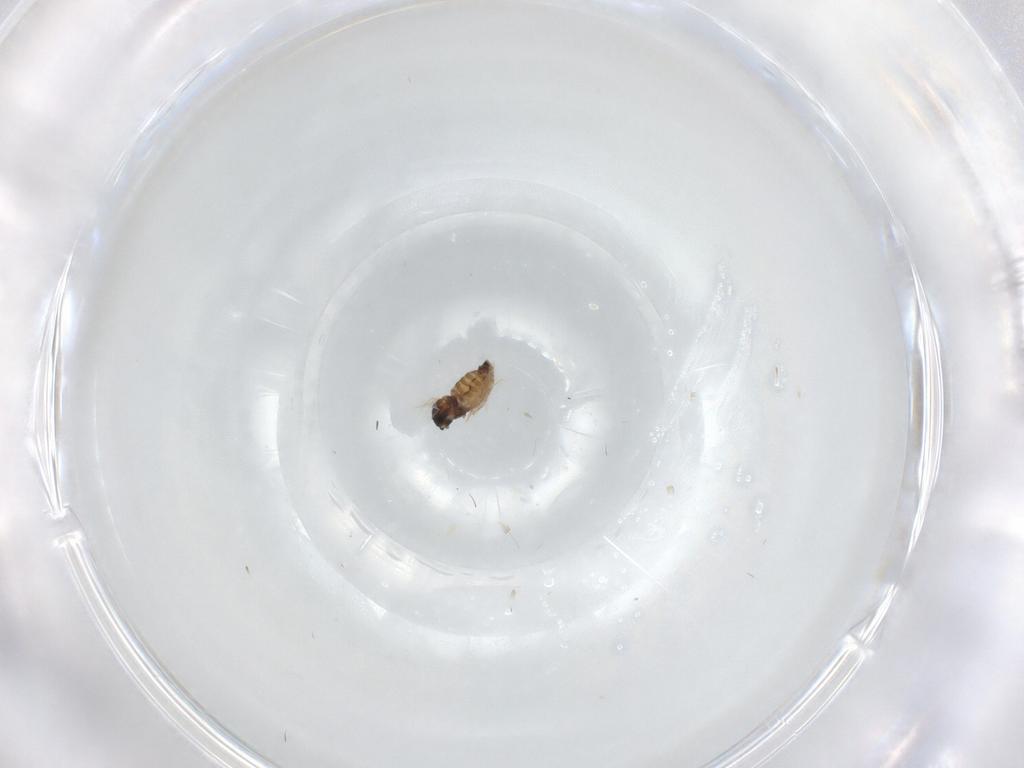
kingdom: Animalia
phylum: Arthropoda
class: Insecta
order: Diptera
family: Cecidomyiidae
